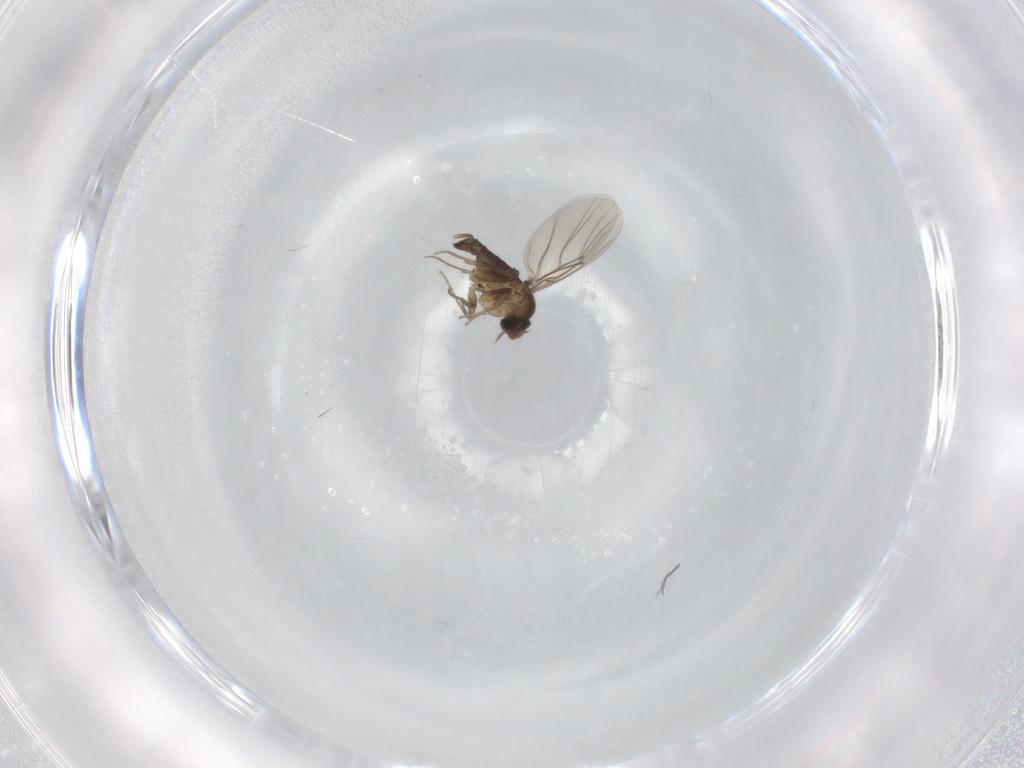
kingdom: Animalia
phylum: Arthropoda
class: Insecta
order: Diptera
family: Phoridae
